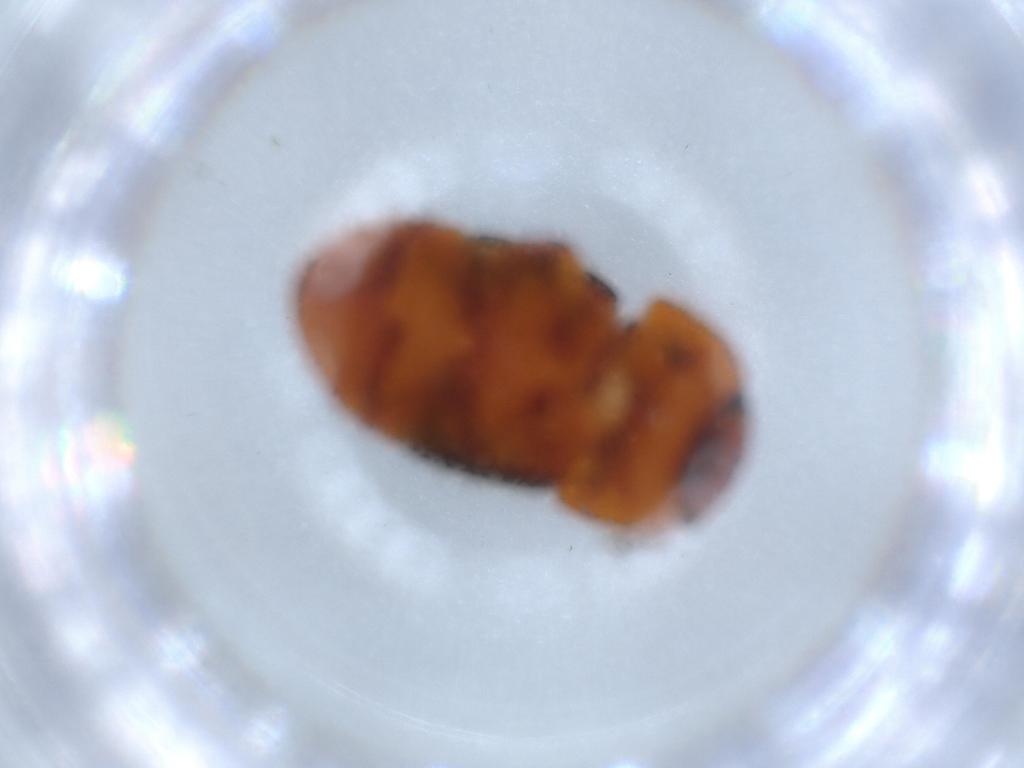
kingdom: Animalia
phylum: Arthropoda
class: Insecta
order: Coleoptera
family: Nitidulidae
